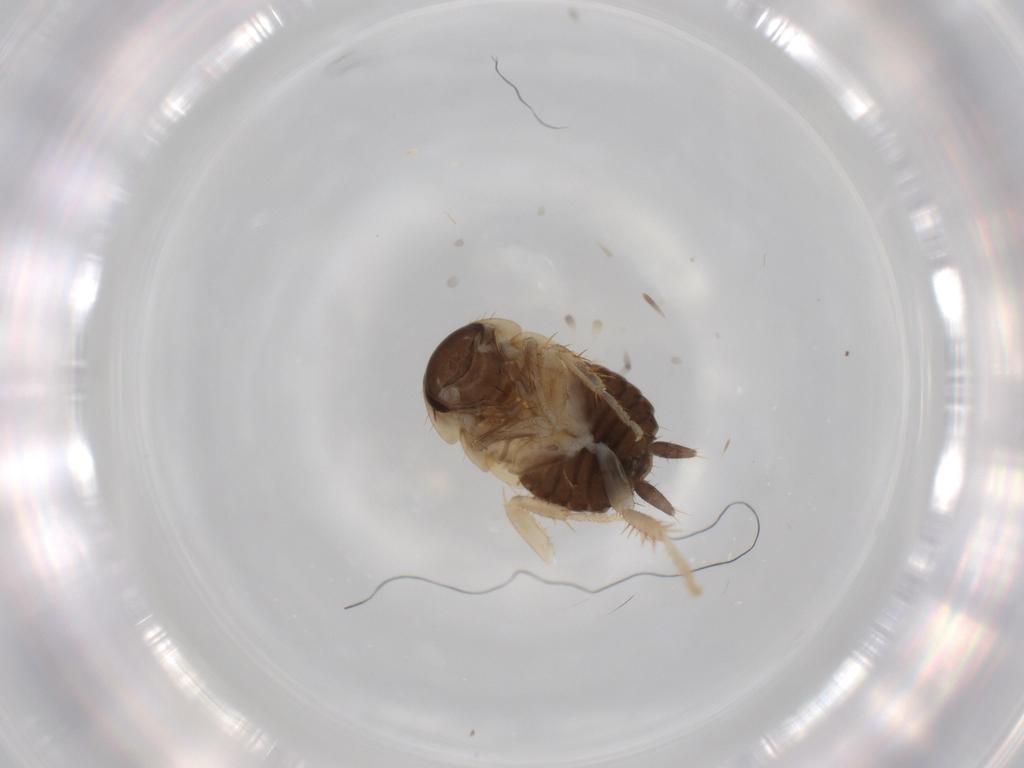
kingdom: Animalia
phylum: Arthropoda
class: Insecta
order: Blattodea
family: Ectobiidae
